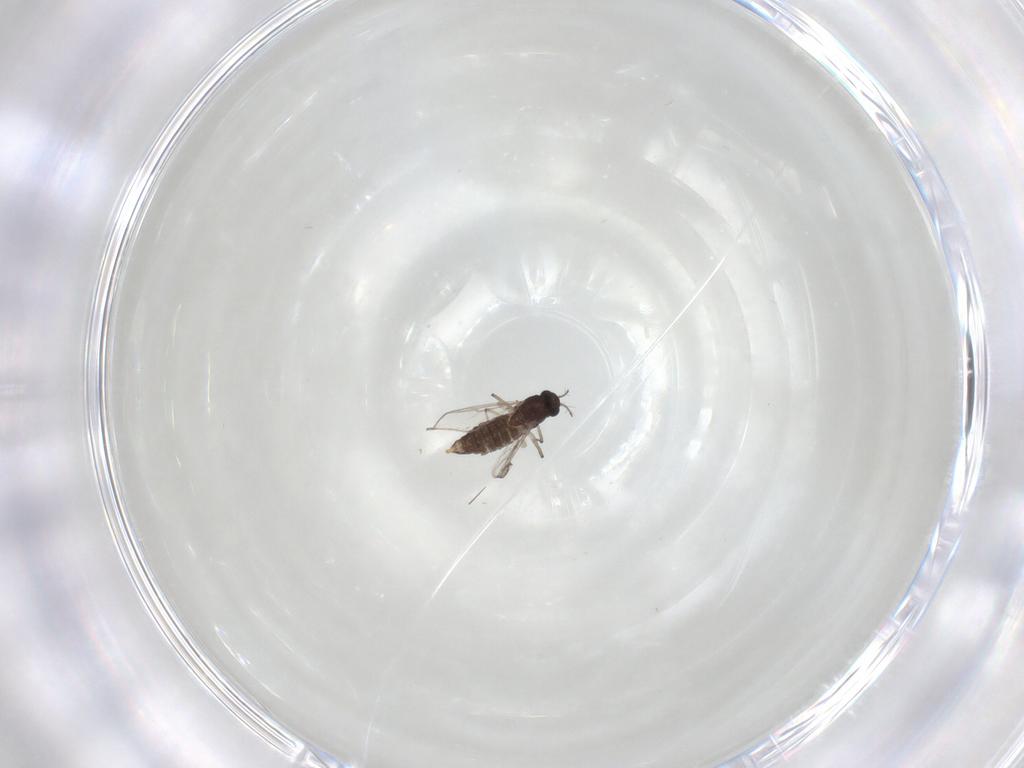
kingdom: Animalia
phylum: Arthropoda
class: Insecta
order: Diptera
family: Chironomidae
